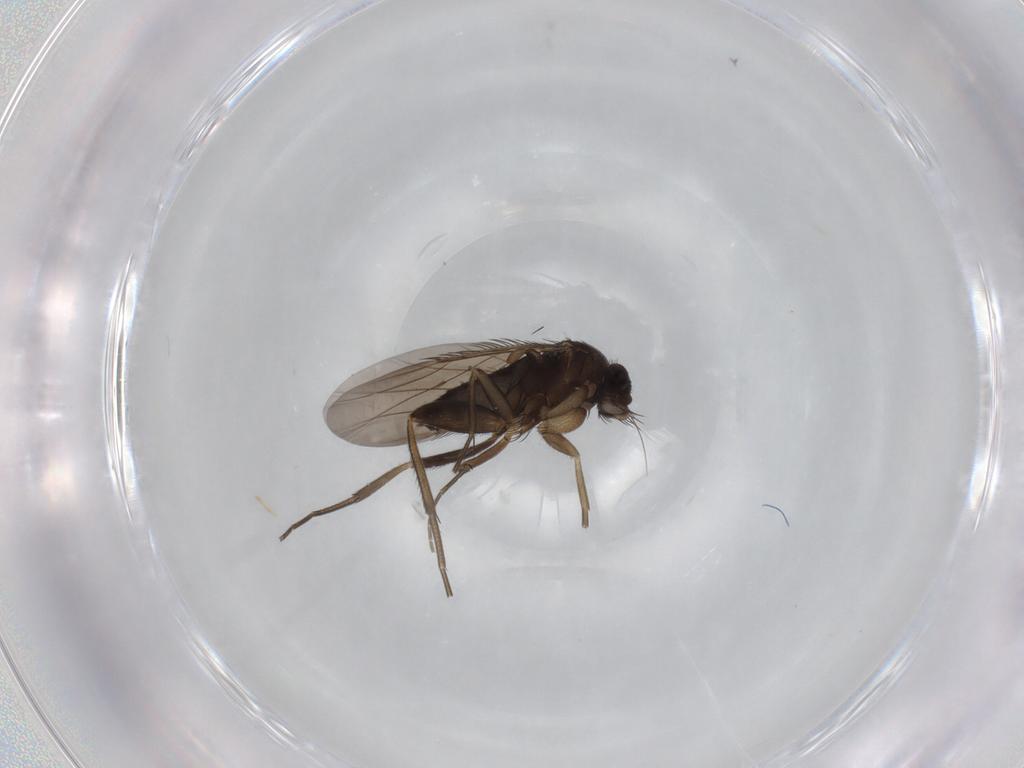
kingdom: Animalia
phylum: Arthropoda
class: Insecta
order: Diptera
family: Phoridae
